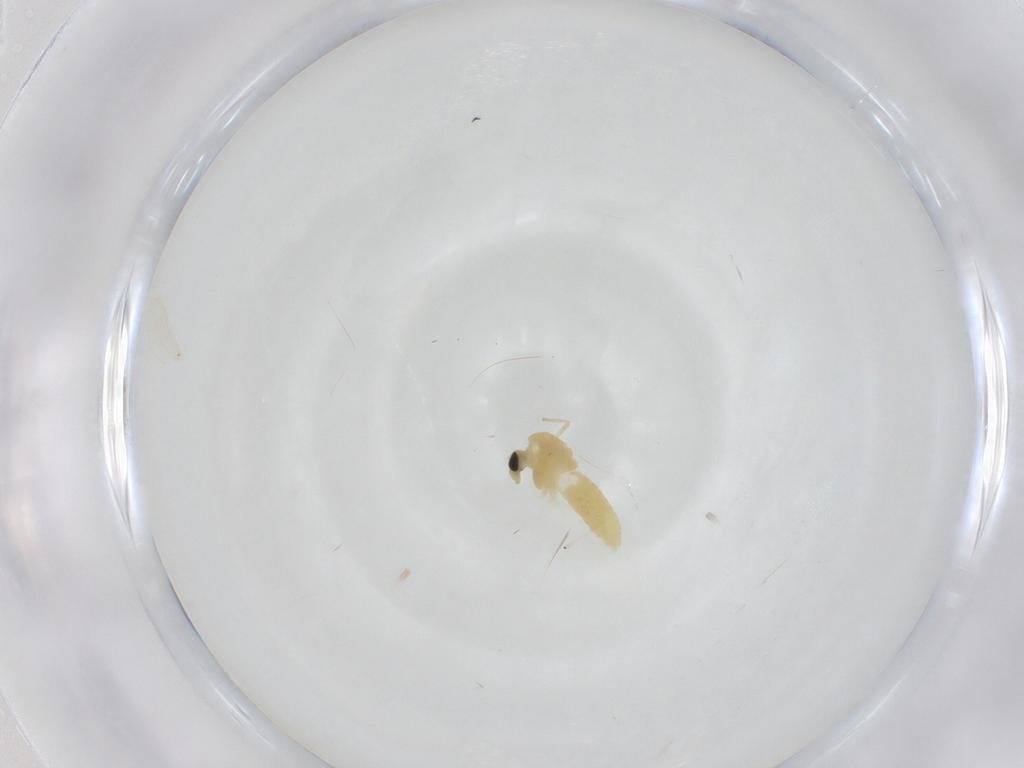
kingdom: Animalia
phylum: Arthropoda
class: Insecta
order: Diptera
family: Chironomidae
